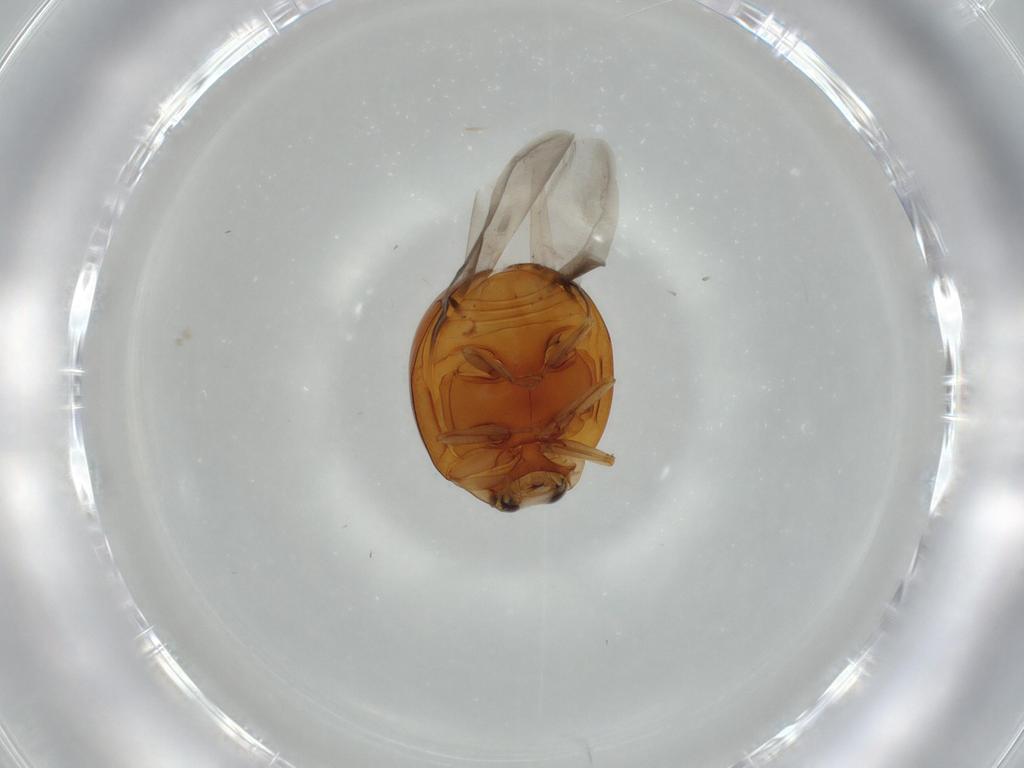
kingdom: Animalia
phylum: Arthropoda
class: Insecta
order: Coleoptera
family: Coccinellidae
